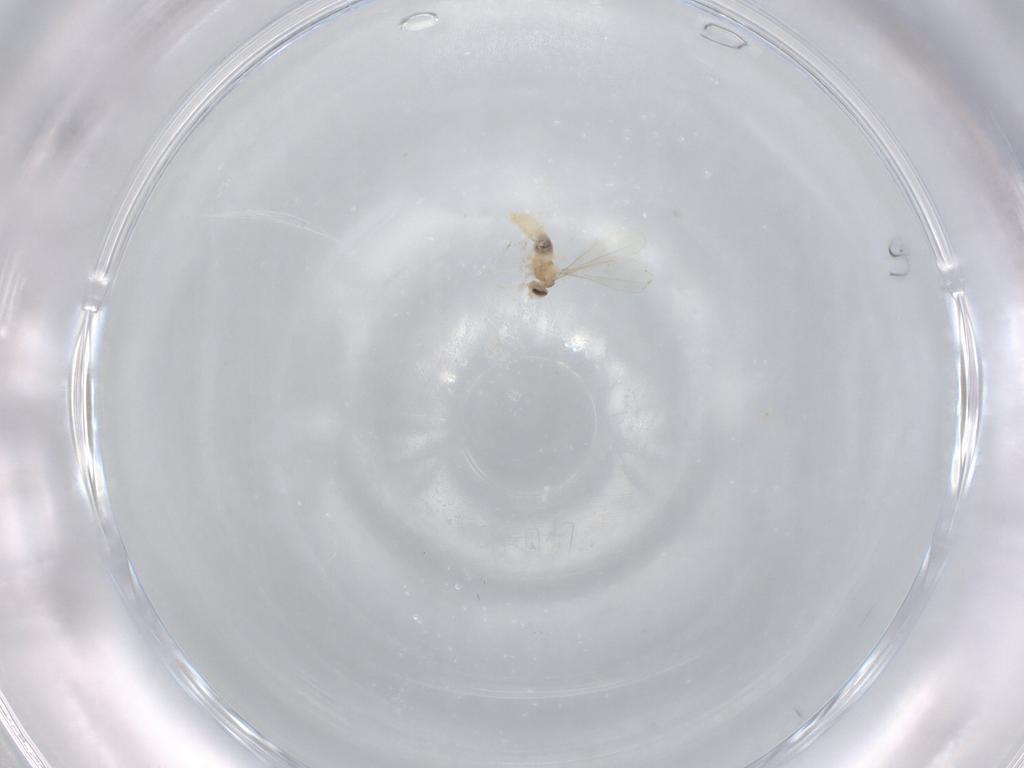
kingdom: Animalia
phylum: Arthropoda
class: Insecta
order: Diptera
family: Cecidomyiidae
